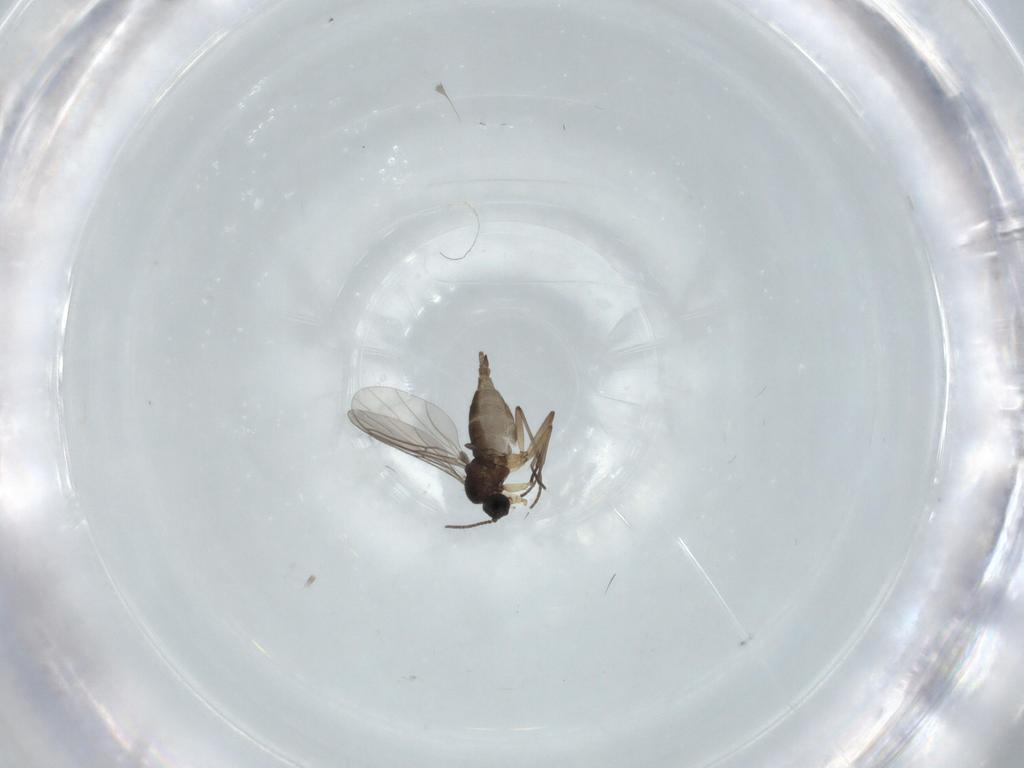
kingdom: Animalia
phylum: Arthropoda
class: Insecta
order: Diptera
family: Sciaridae
